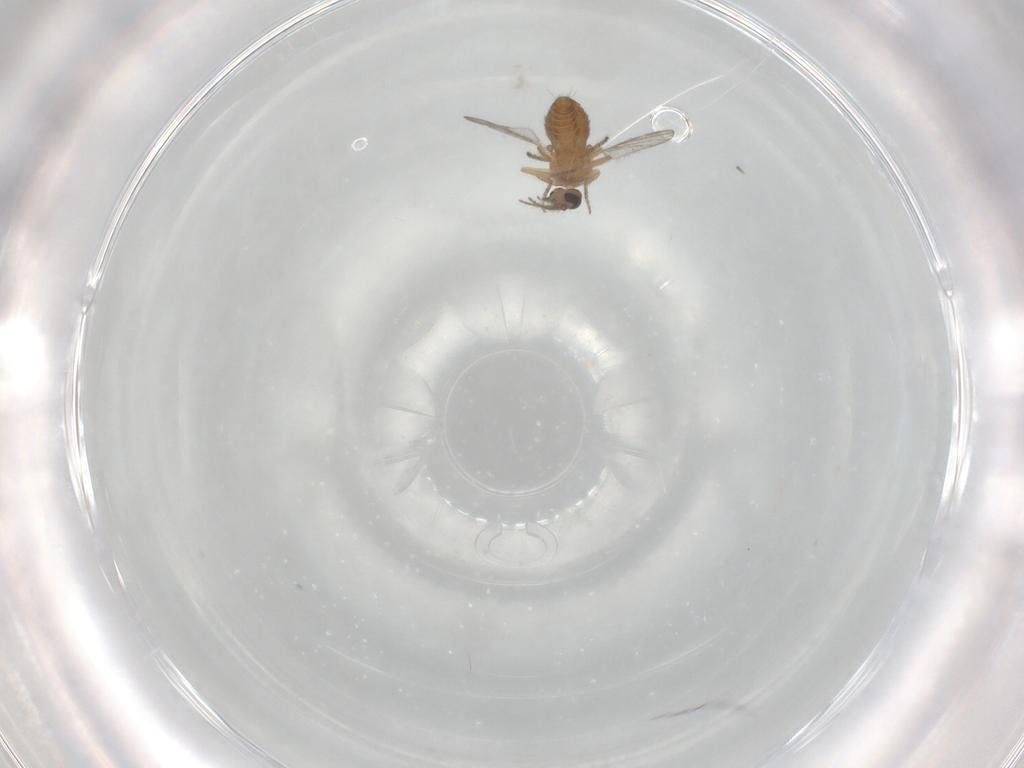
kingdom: Animalia
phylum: Arthropoda
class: Insecta
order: Diptera
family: Ceratopogonidae
